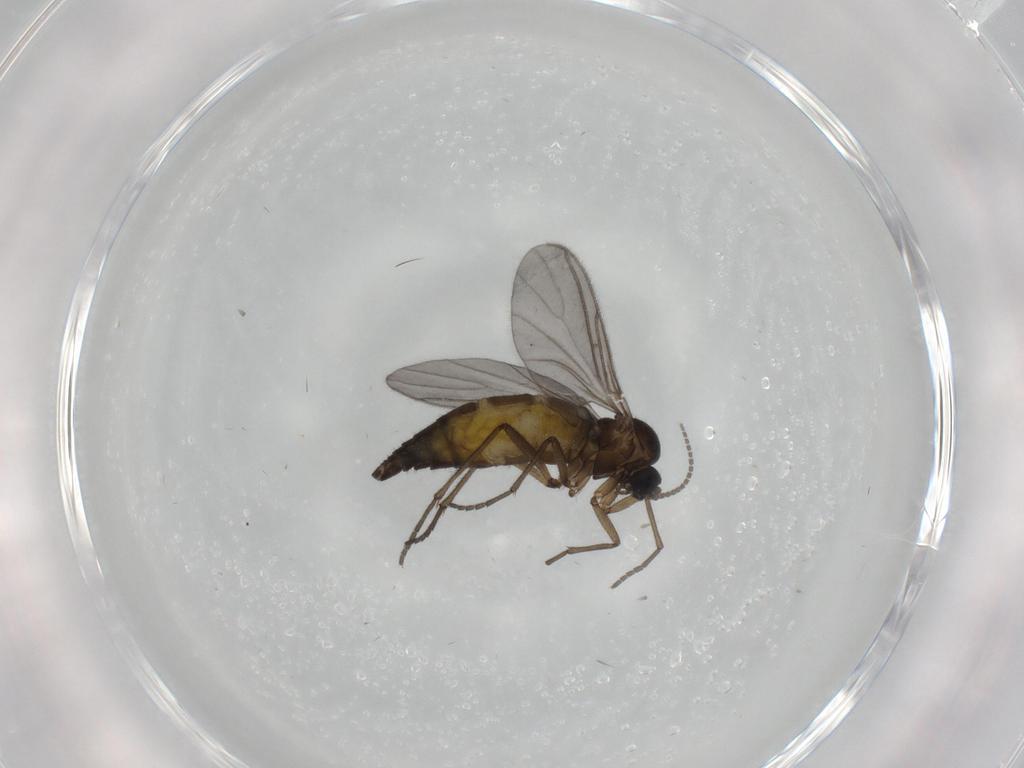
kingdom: Animalia
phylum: Arthropoda
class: Insecta
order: Diptera
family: Sciaridae
